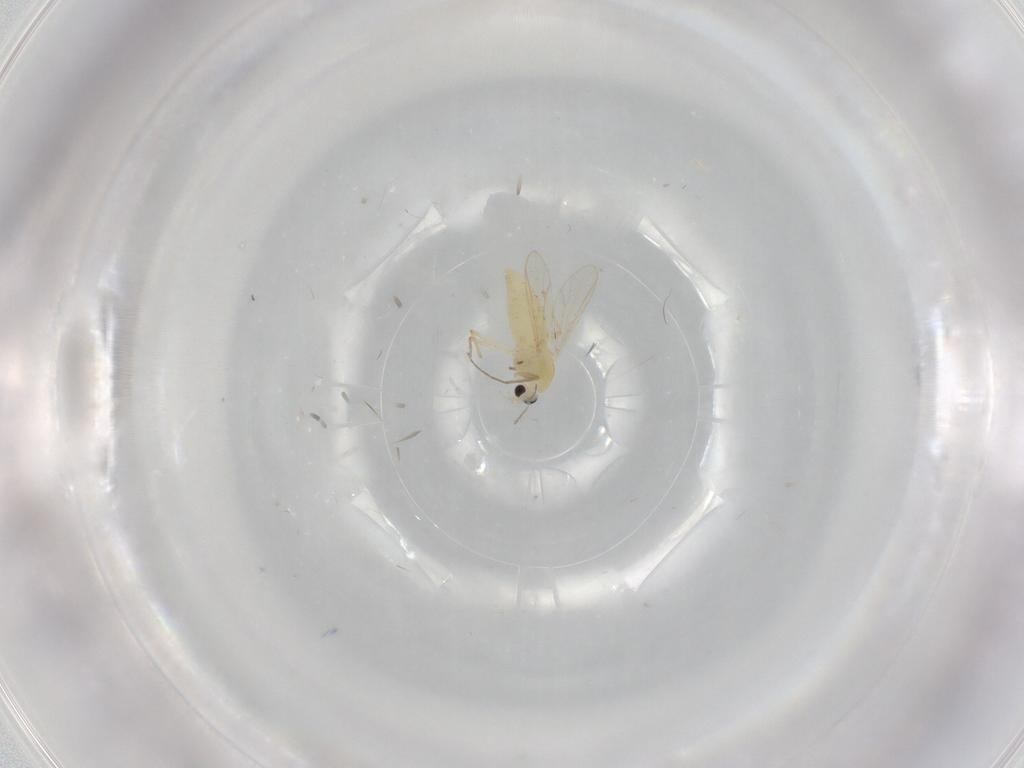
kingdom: Animalia
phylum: Arthropoda
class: Insecta
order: Diptera
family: Chironomidae
